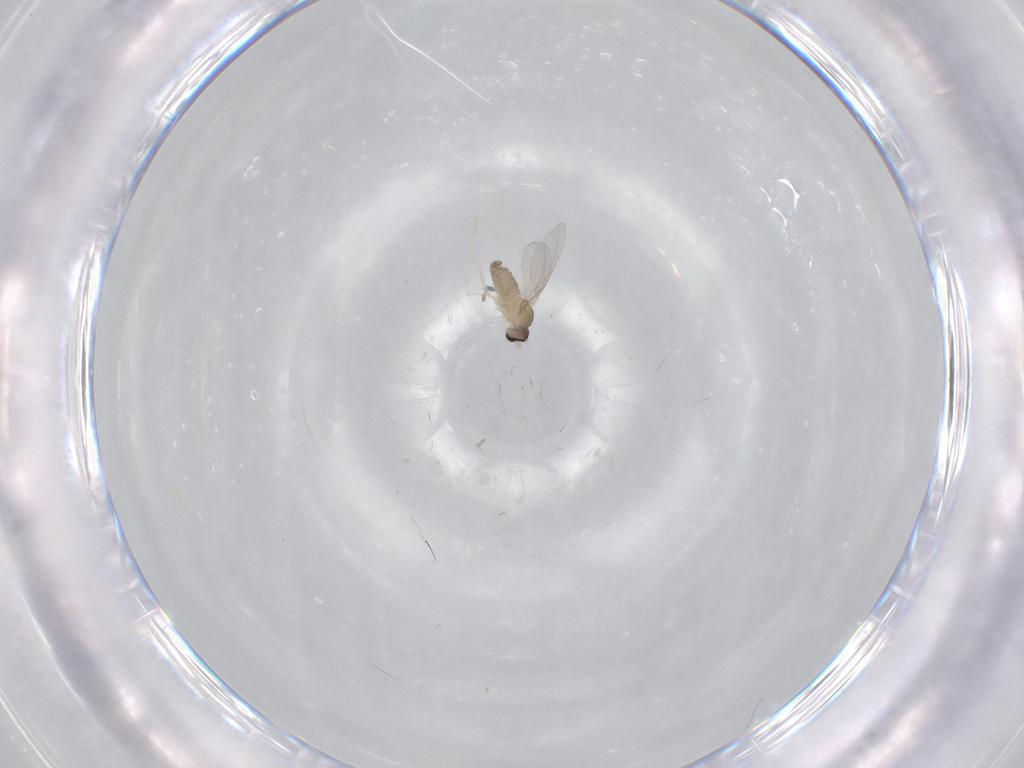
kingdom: Animalia
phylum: Arthropoda
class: Insecta
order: Diptera
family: Cecidomyiidae
